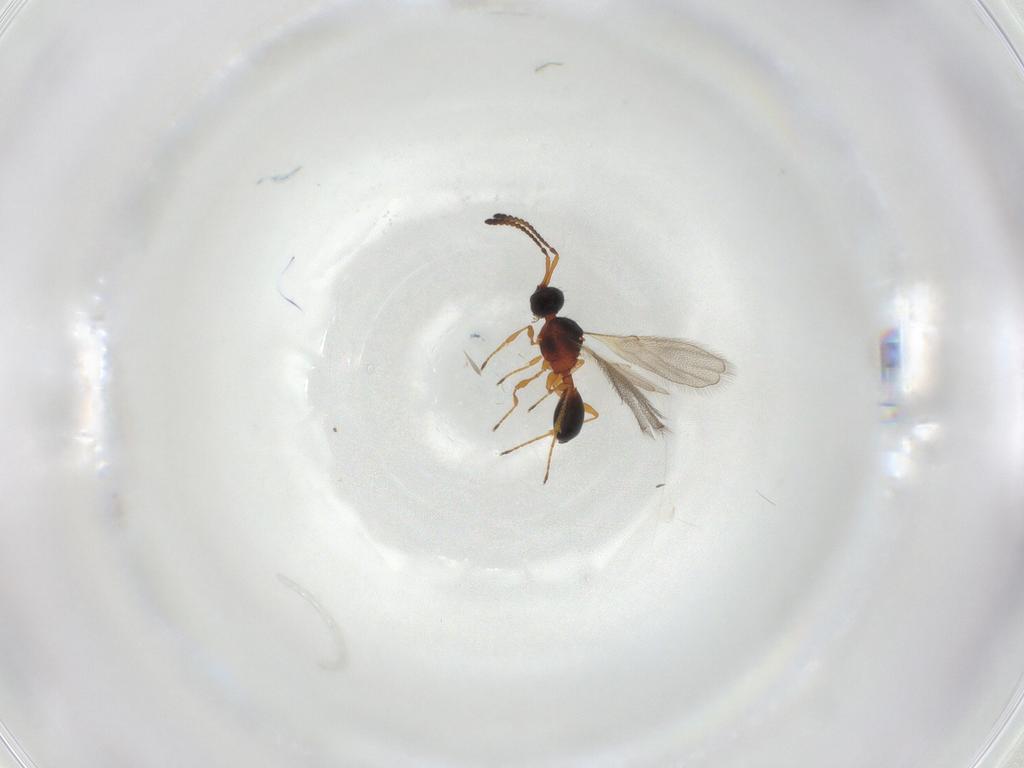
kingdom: Animalia
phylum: Arthropoda
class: Insecta
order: Hymenoptera
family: Diapriidae
